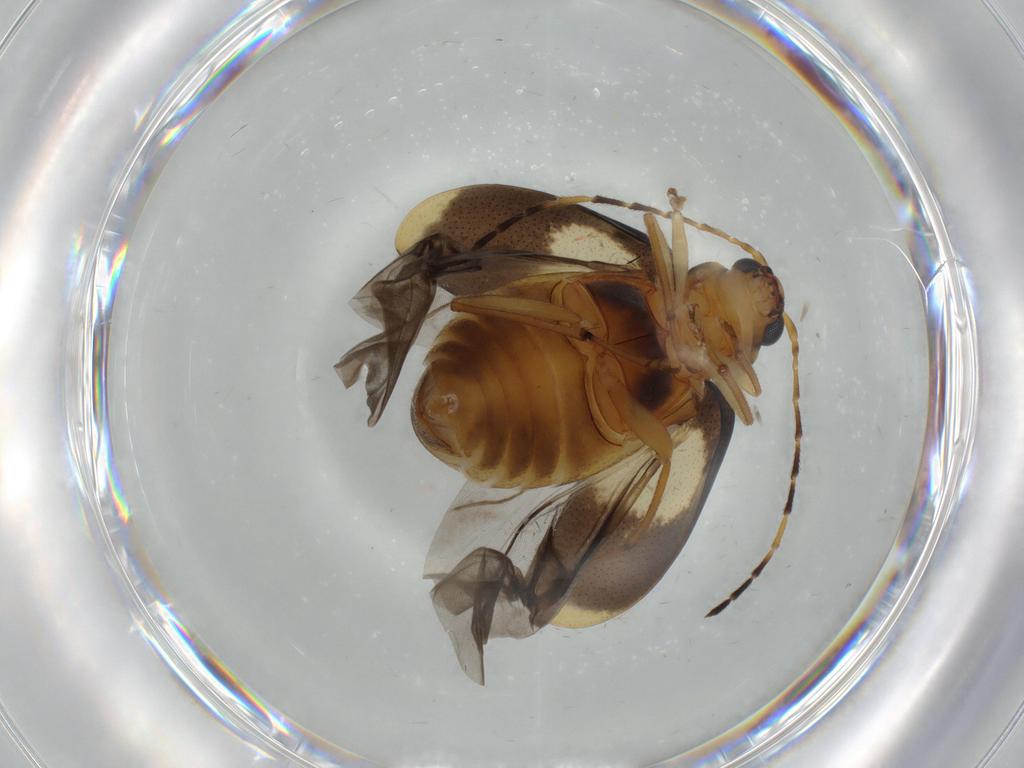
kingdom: Animalia
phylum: Arthropoda
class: Insecta
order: Coleoptera
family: Chrysomelidae
